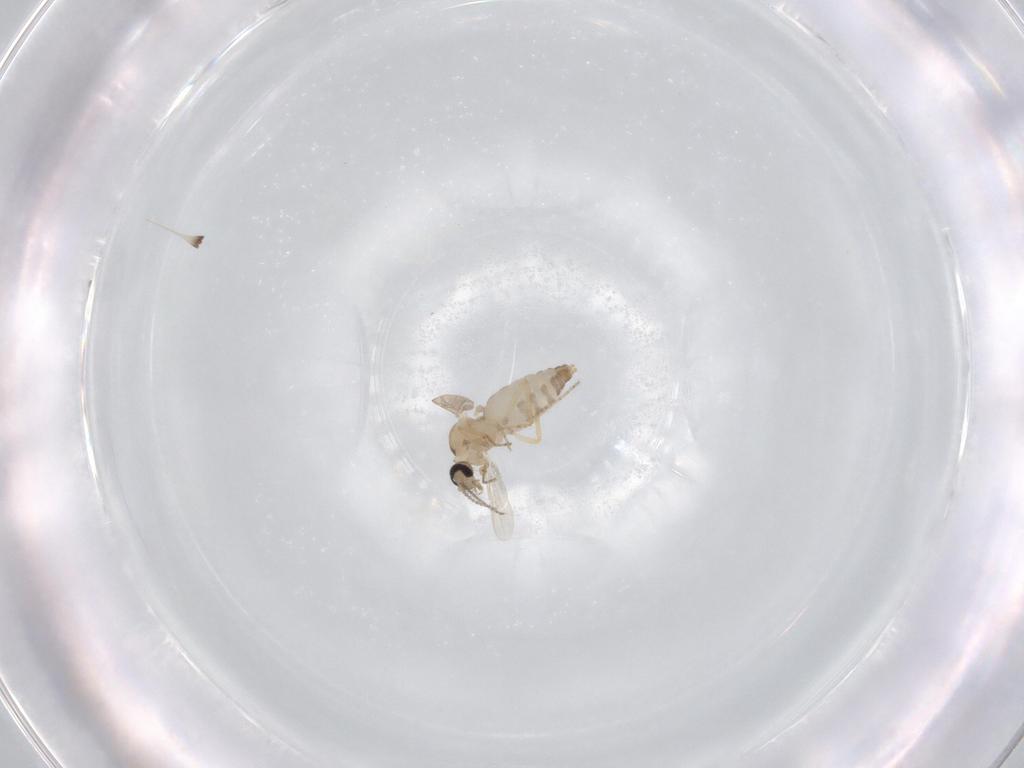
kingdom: Animalia
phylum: Arthropoda
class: Insecta
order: Diptera
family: Ceratopogonidae
